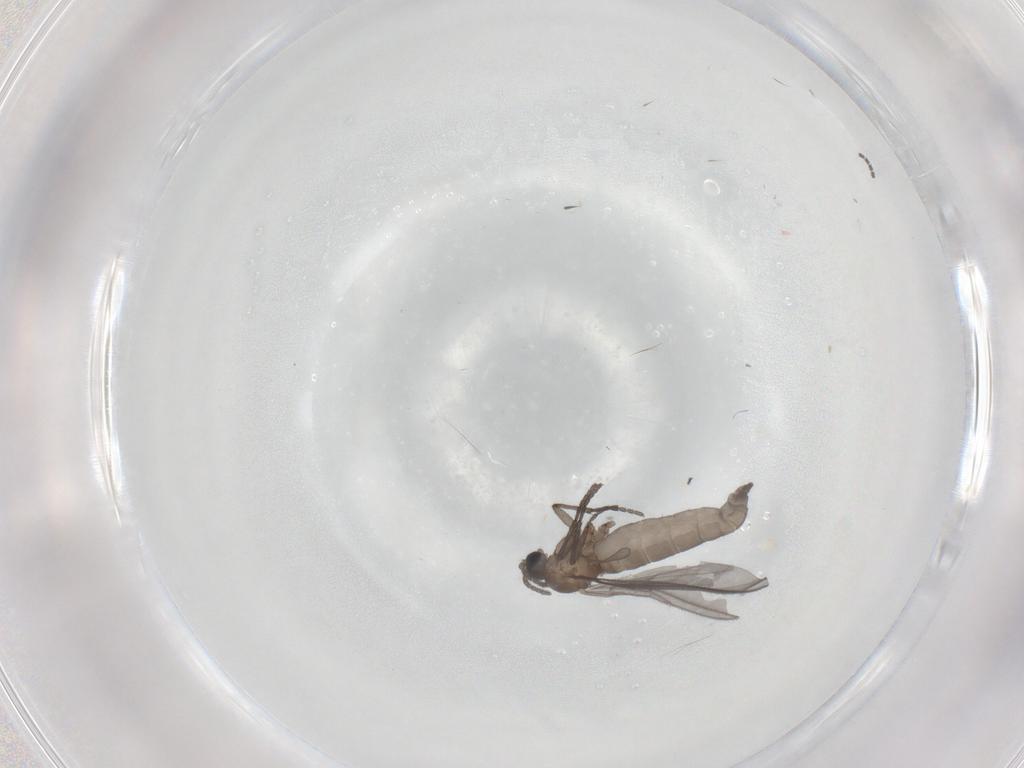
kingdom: Animalia
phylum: Arthropoda
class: Insecta
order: Diptera
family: Sciaridae
